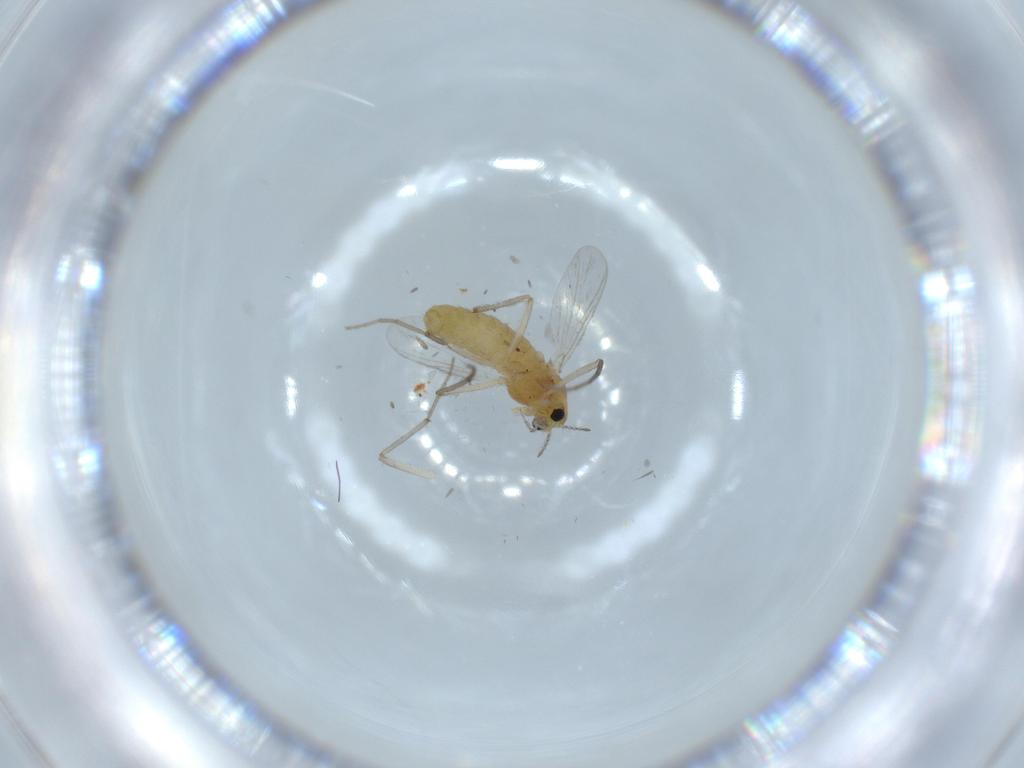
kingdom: Animalia
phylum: Arthropoda
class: Insecta
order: Diptera
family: Chironomidae
